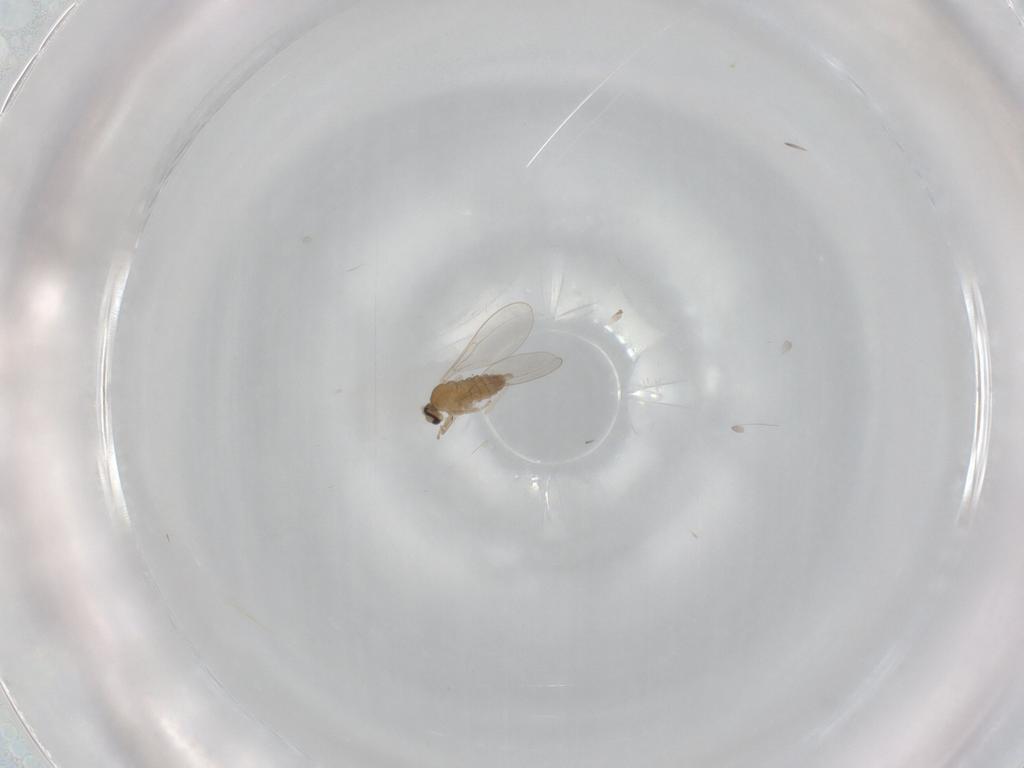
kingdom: Animalia
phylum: Arthropoda
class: Insecta
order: Diptera
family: Cecidomyiidae
